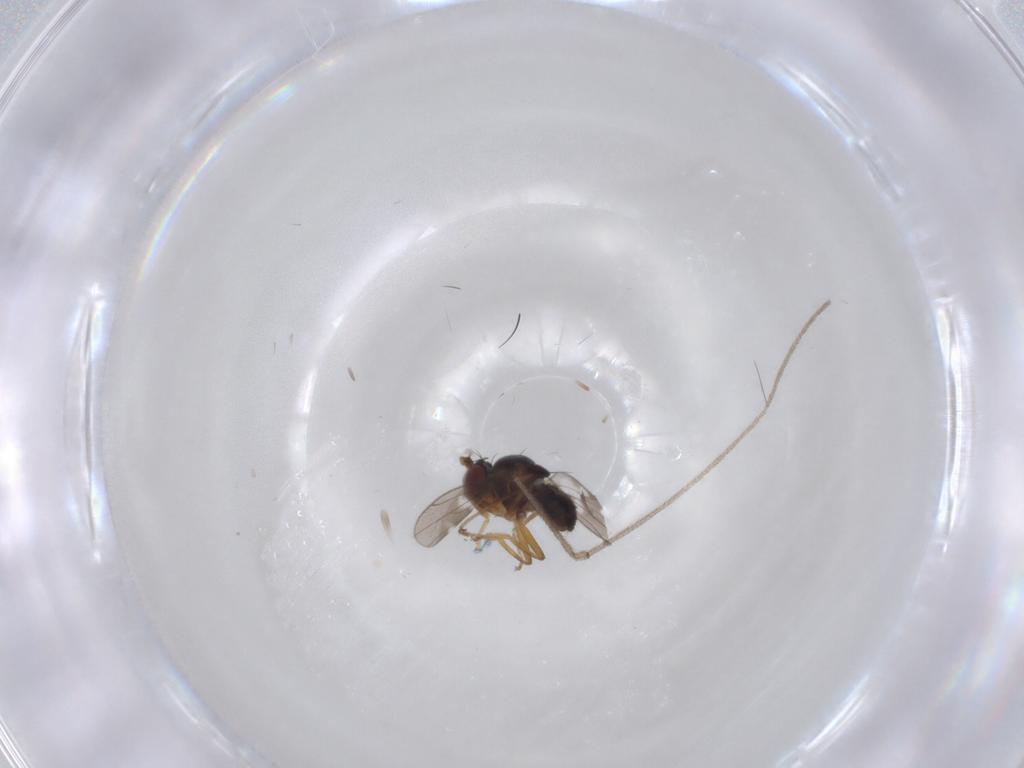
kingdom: Animalia
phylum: Arthropoda
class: Insecta
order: Diptera
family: Ephydridae
